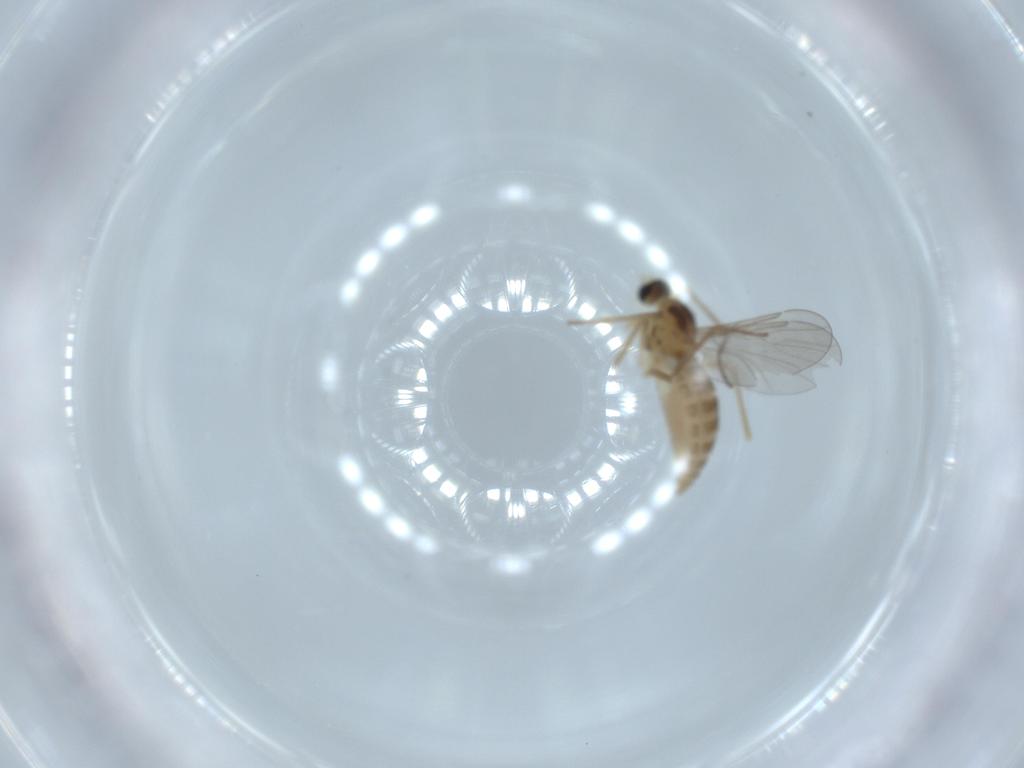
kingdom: Animalia
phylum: Arthropoda
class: Insecta
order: Diptera
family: Cecidomyiidae
